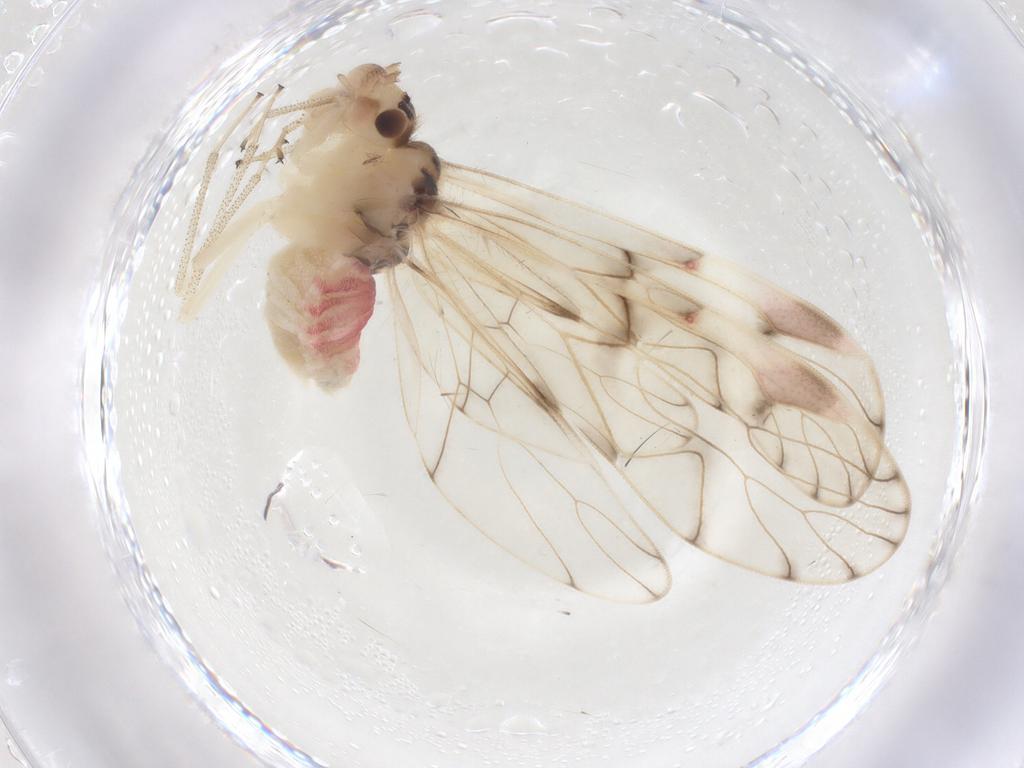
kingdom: Animalia
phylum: Arthropoda
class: Insecta
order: Psocodea
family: Amphipsocidae
